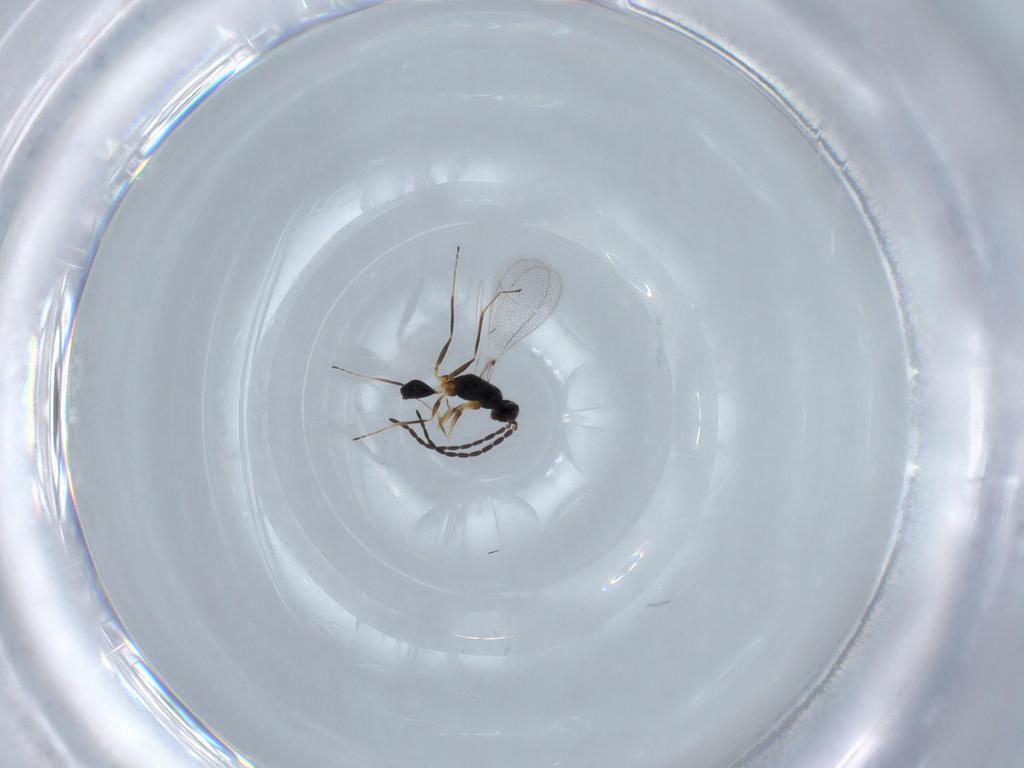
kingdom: Animalia
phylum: Arthropoda
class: Insecta
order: Hymenoptera
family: Mymaridae
